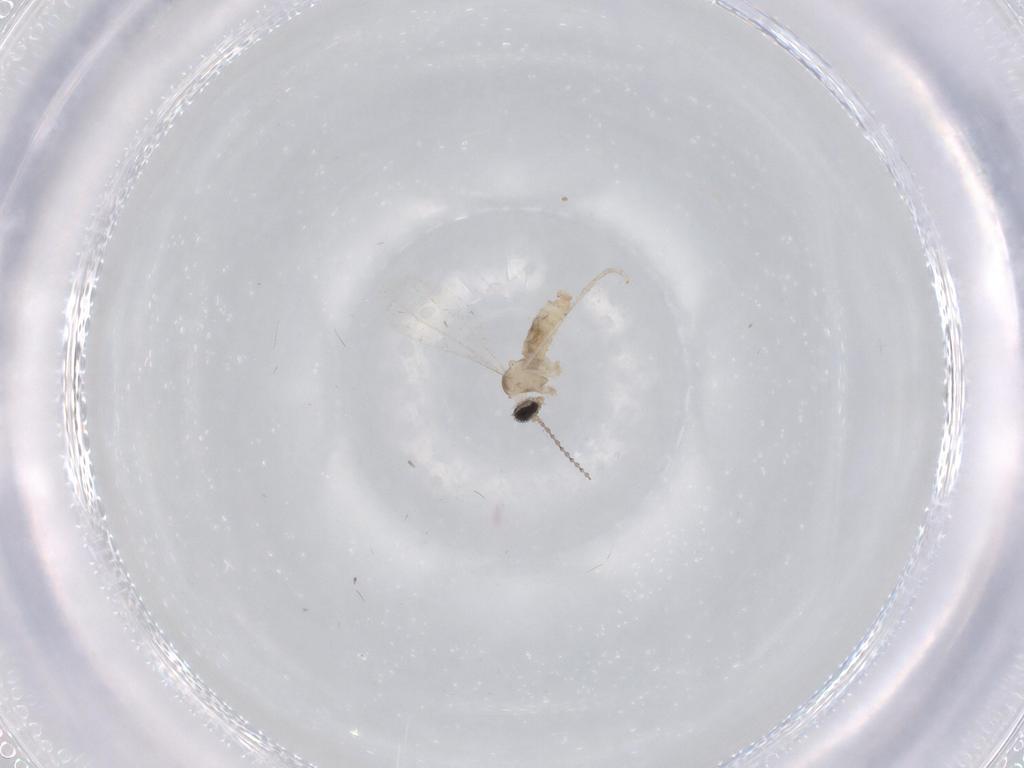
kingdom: Animalia
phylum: Arthropoda
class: Insecta
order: Diptera
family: Cecidomyiidae
